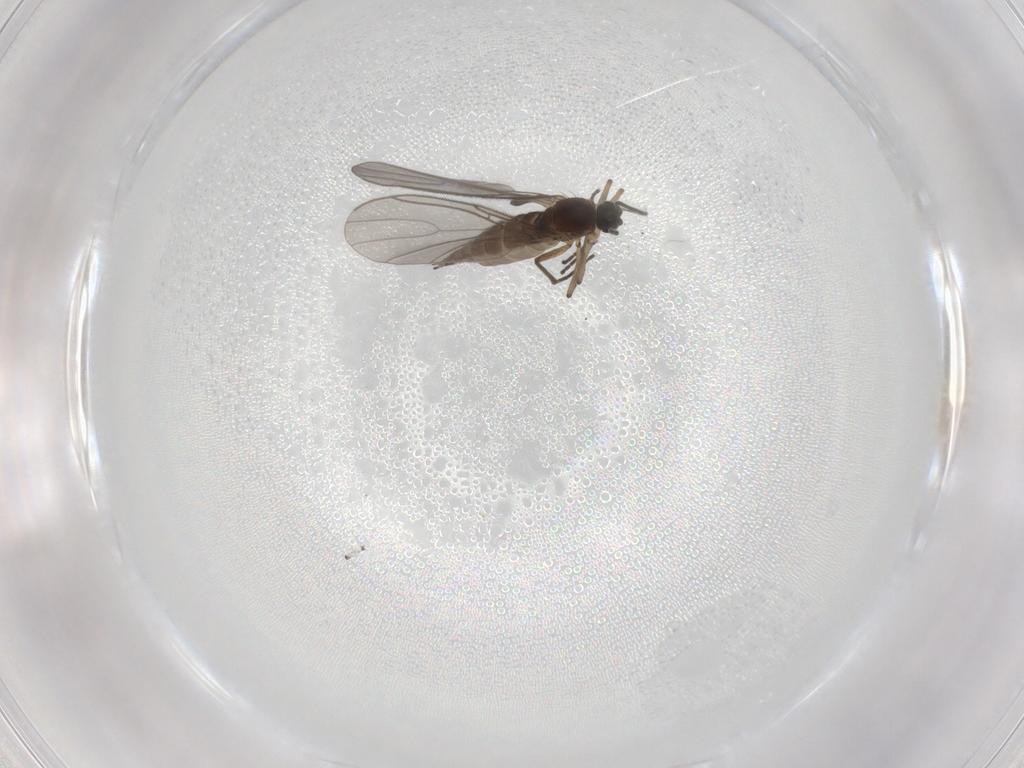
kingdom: Animalia
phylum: Arthropoda
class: Insecta
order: Diptera
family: Sciaridae
